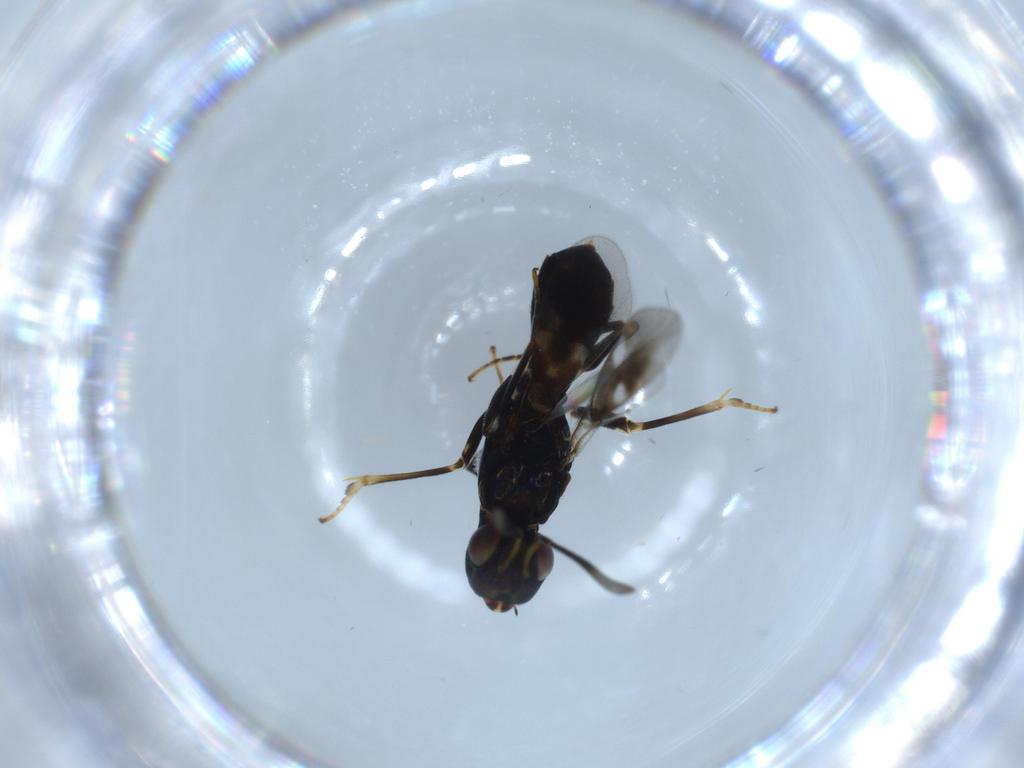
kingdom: Animalia
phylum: Arthropoda
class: Insecta
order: Hymenoptera
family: Eupelmidae
